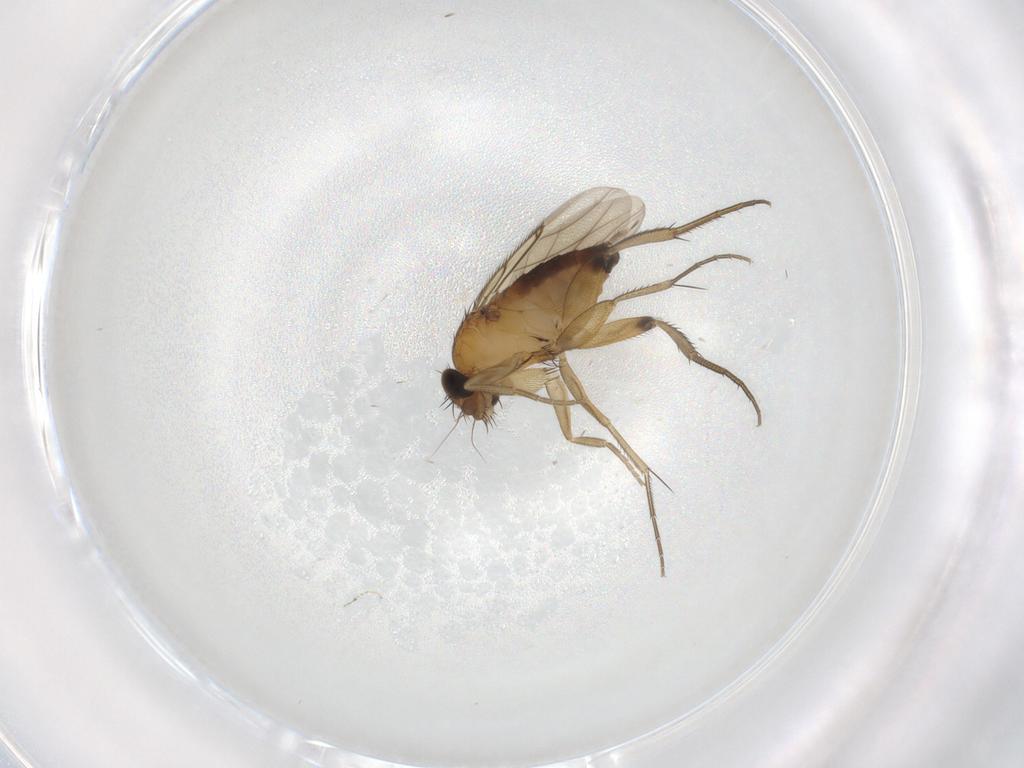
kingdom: Animalia
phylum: Arthropoda
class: Insecta
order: Diptera
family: Phoridae
